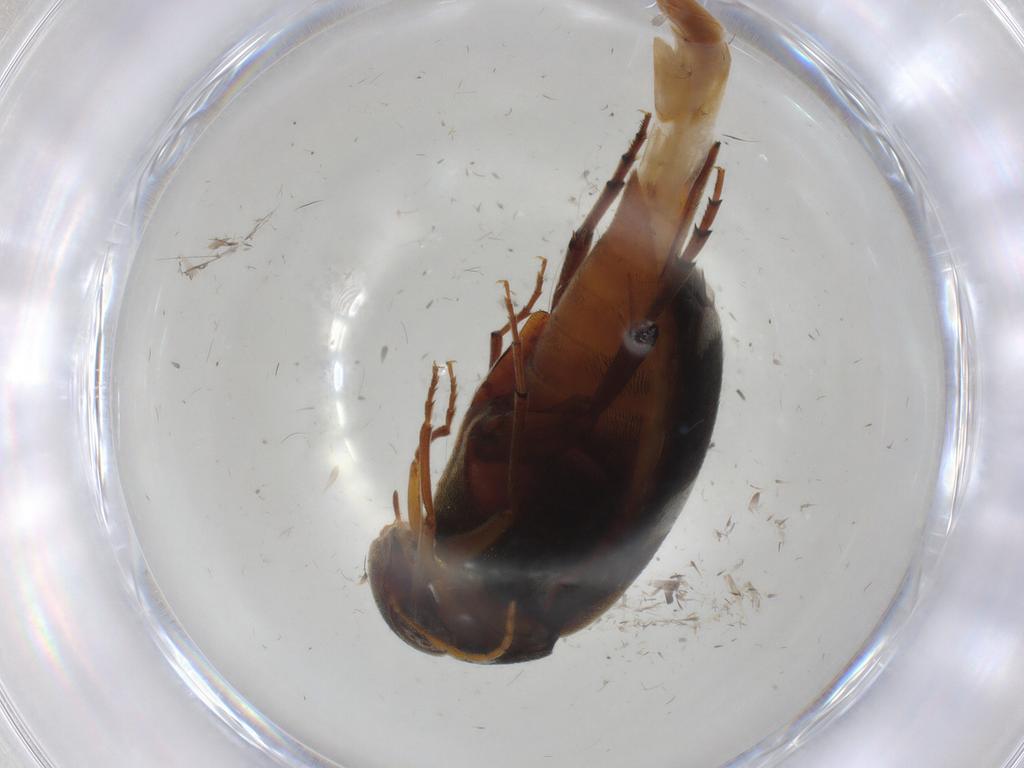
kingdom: Animalia
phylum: Arthropoda
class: Insecta
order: Coleoptera
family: Mordellidae
